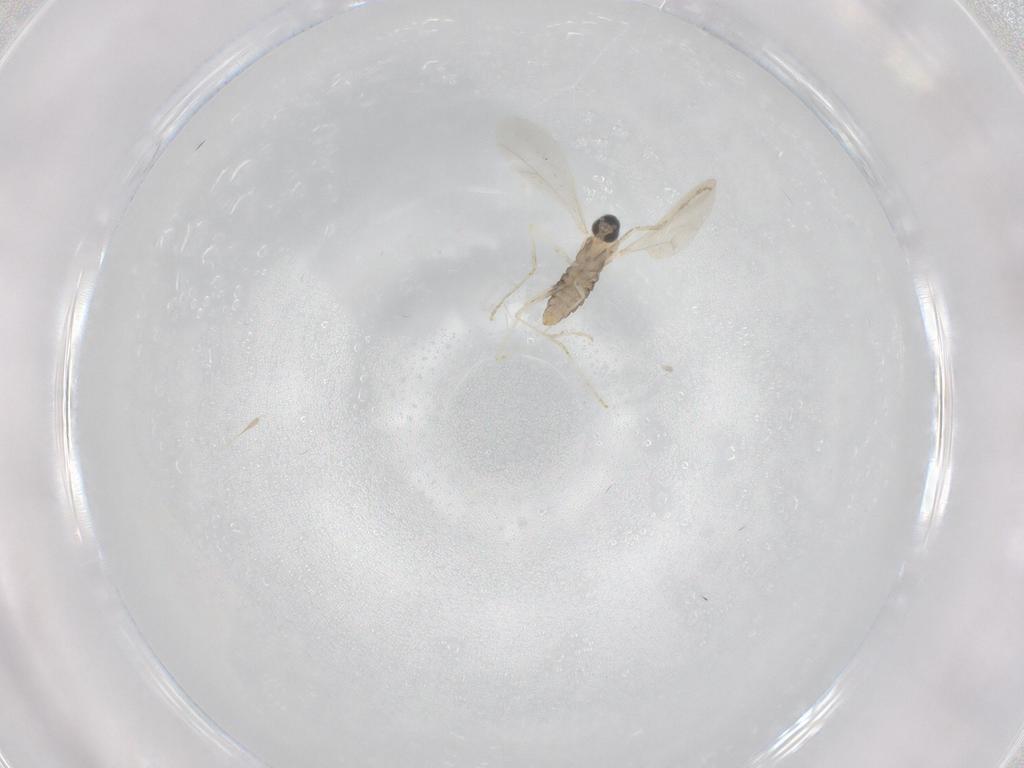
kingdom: Animalia
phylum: Arthropoda
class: Insecta
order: Diptera
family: Cecidomyiidae
